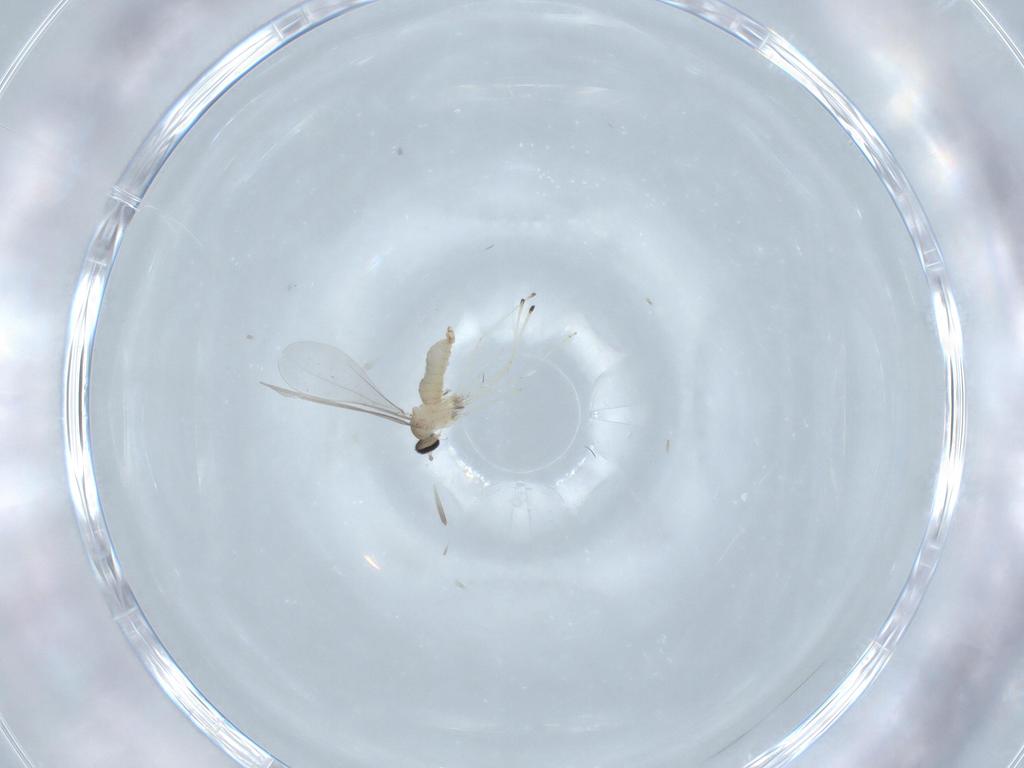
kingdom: Animalia
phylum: Arthropoda
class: Insecta
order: Diptera
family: Cecidomyiidae
